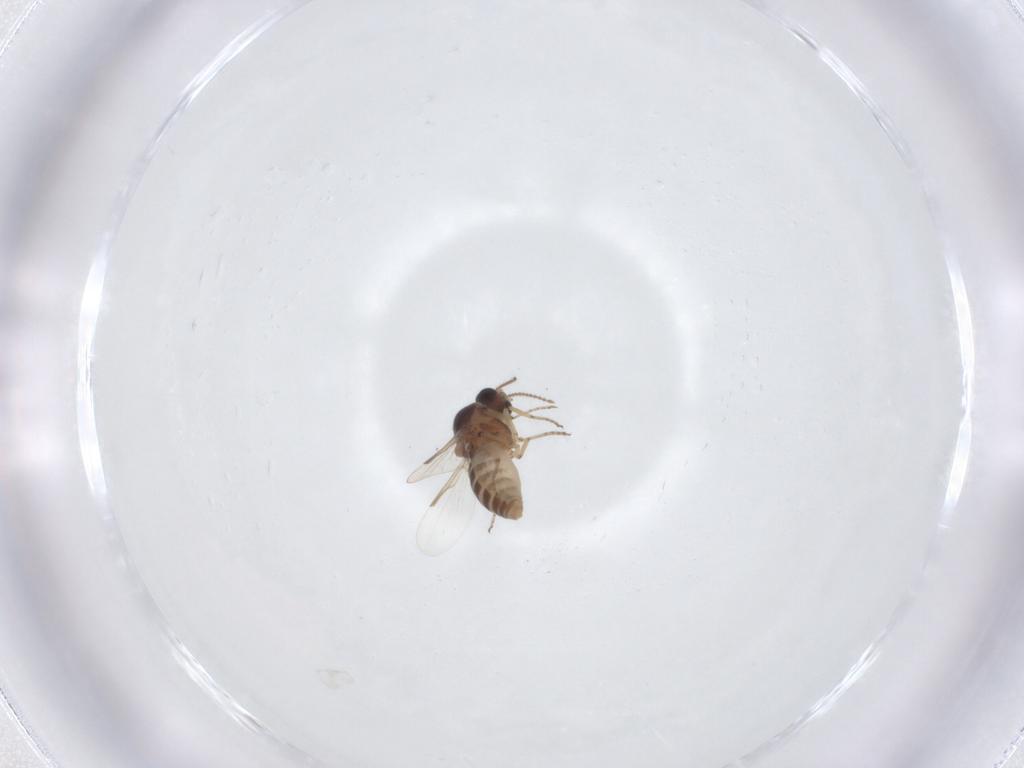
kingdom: Animalia
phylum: Arthropoda
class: Insecta
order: Diptera
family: Ceratopogonidae
